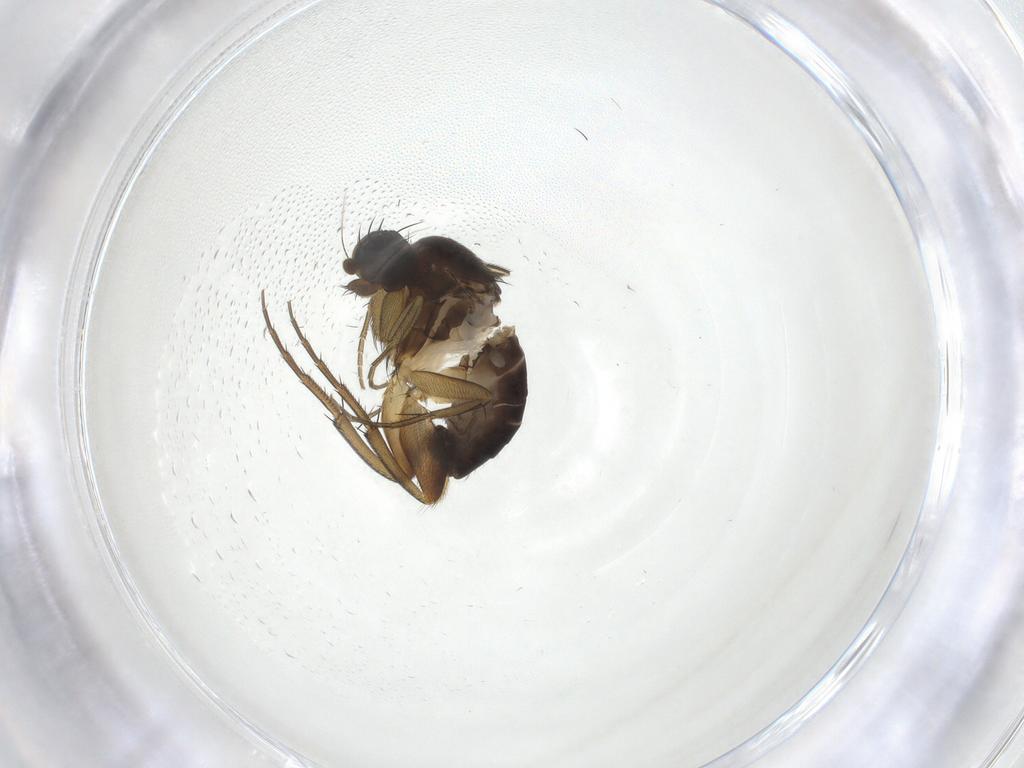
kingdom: Animalia
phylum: Arthropoda
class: Insecta
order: Diptera
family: Phoridae
